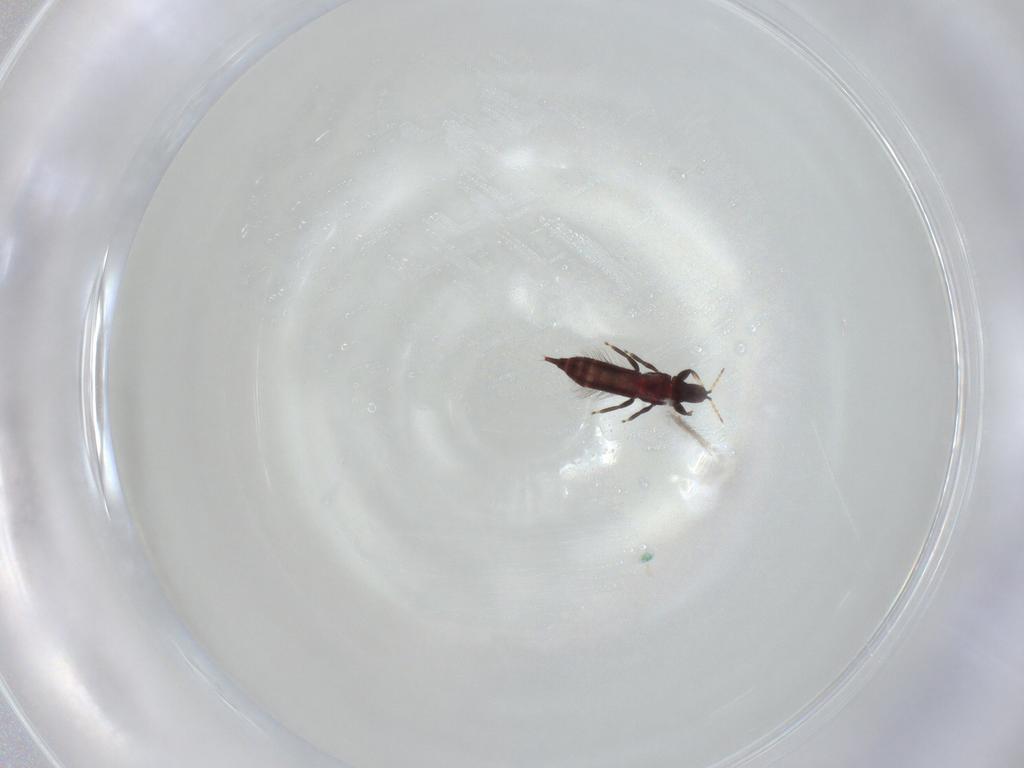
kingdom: Animalia
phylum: Arthropoda
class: Insecta
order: Thysanoptera
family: Phlaeothripidae
